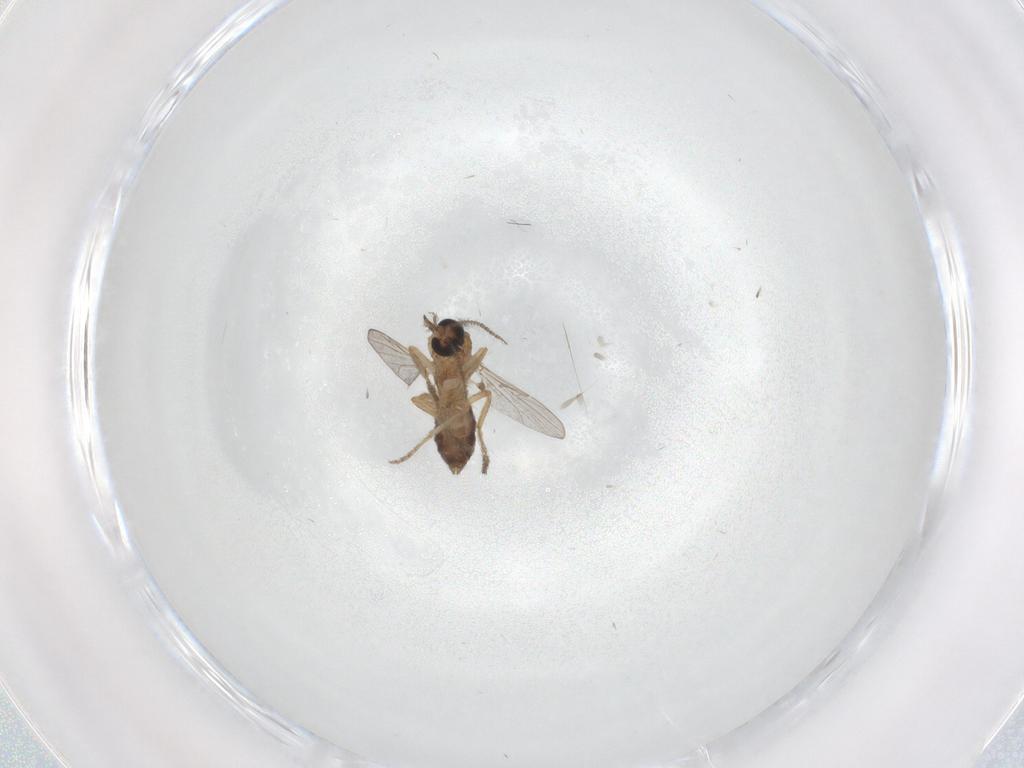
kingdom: Animalia
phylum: Arthropoda
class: Insecta
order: Diptera
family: Ceratopogonidae
